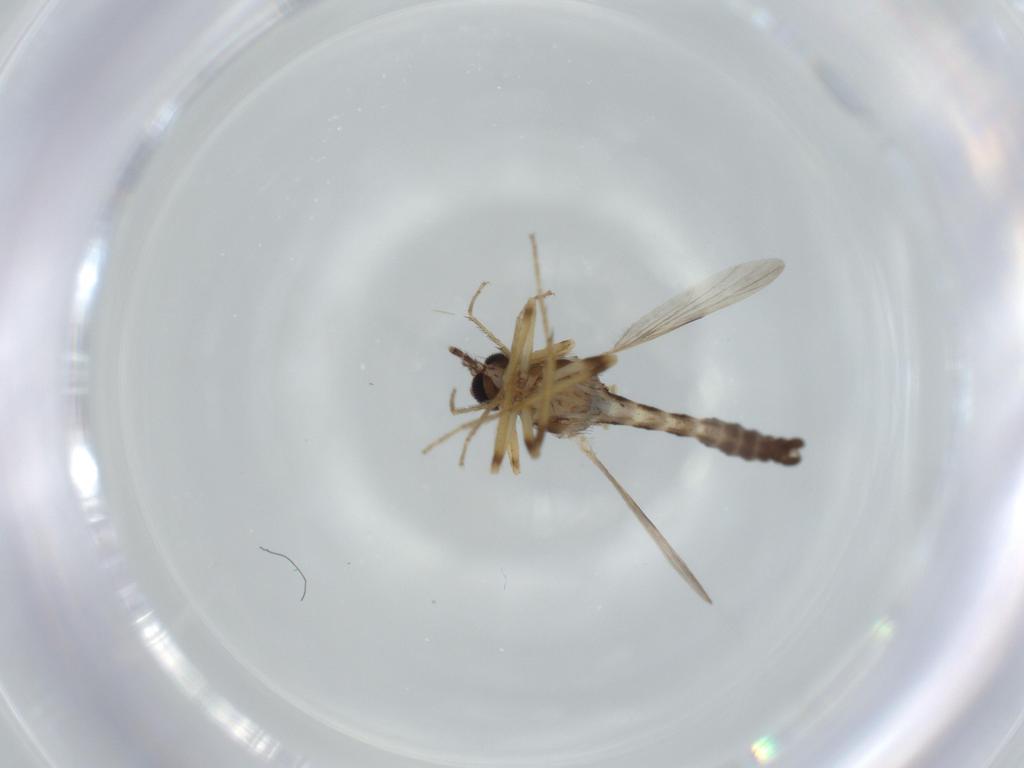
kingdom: Animalia
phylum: Arthropoda
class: Insecta
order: Diptera
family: Ceratopogonidae
